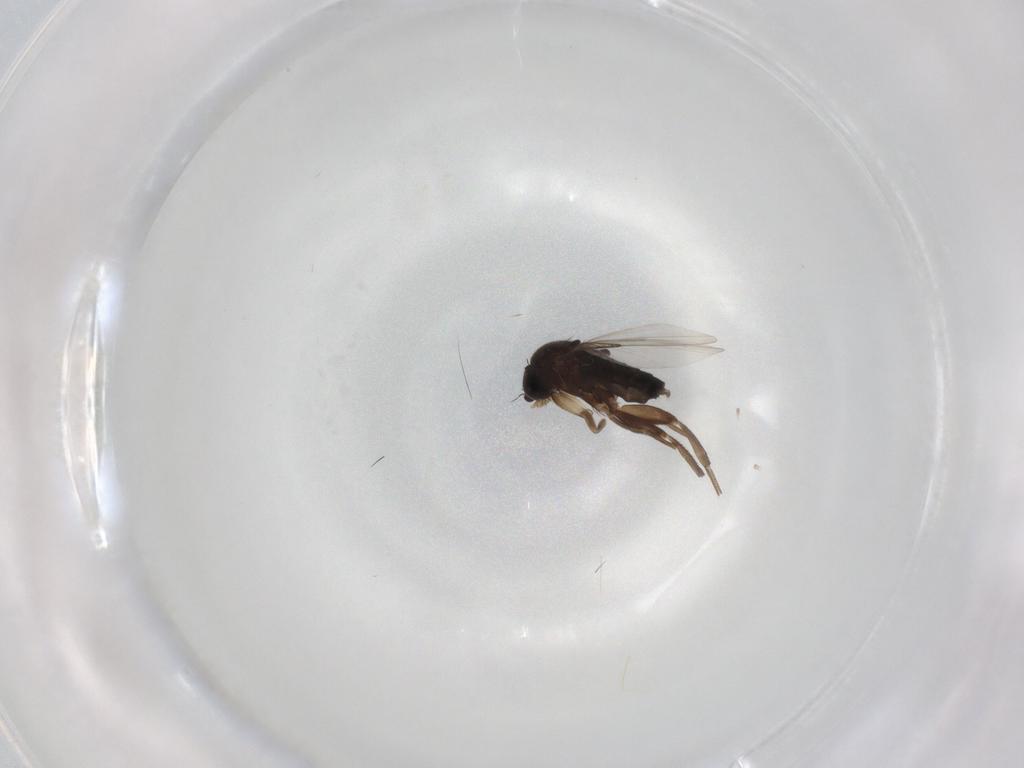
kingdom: Animalia
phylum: Arthropoda
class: Insecta
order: Diptera
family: Phoridae
